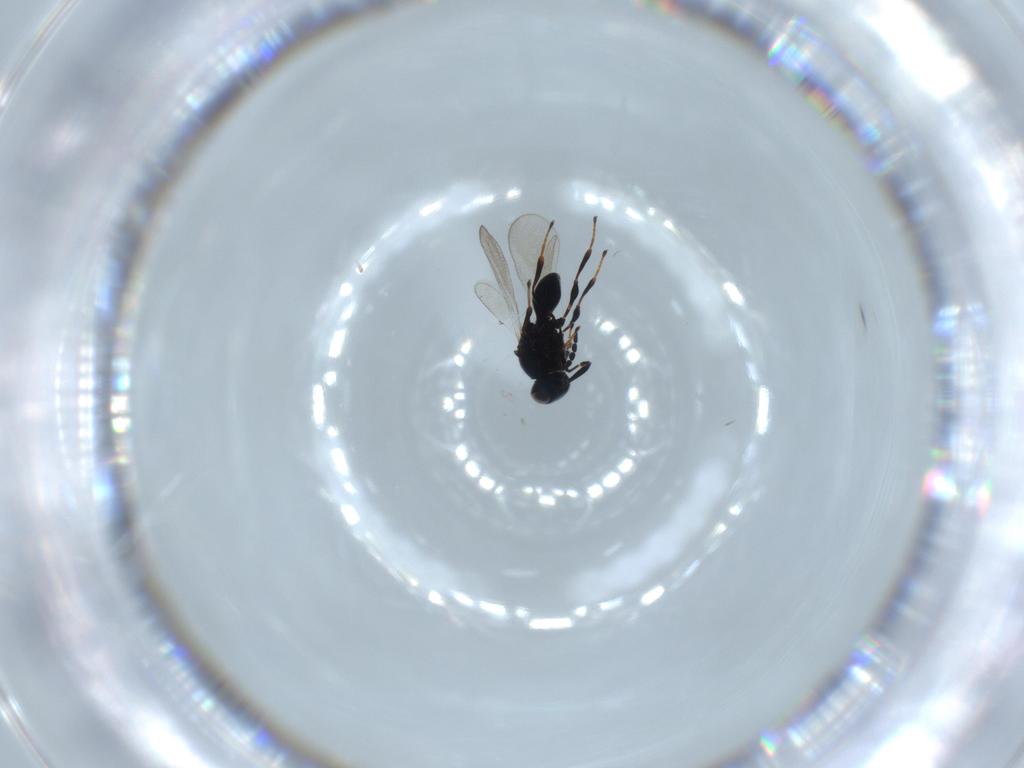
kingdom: Animalia
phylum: Arthropoda
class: Insecta
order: Hymenoptera
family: Platygastridae
